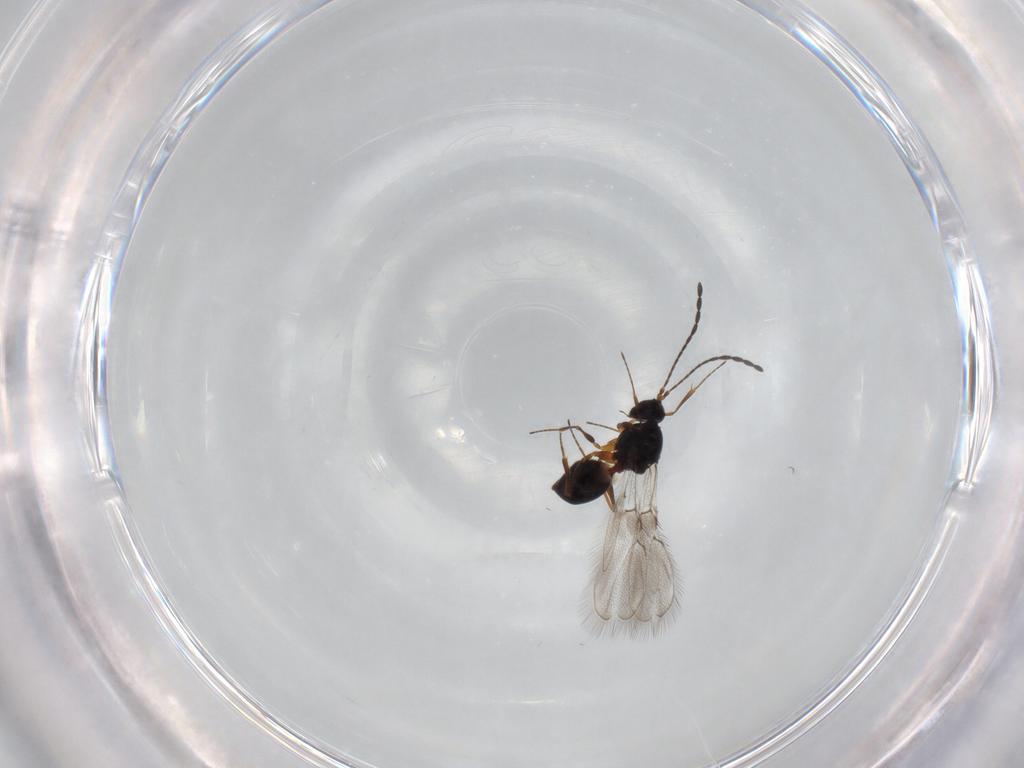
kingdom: Animalia
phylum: Arthropoda
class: Insecta
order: Hymenoptera
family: Figitidae
